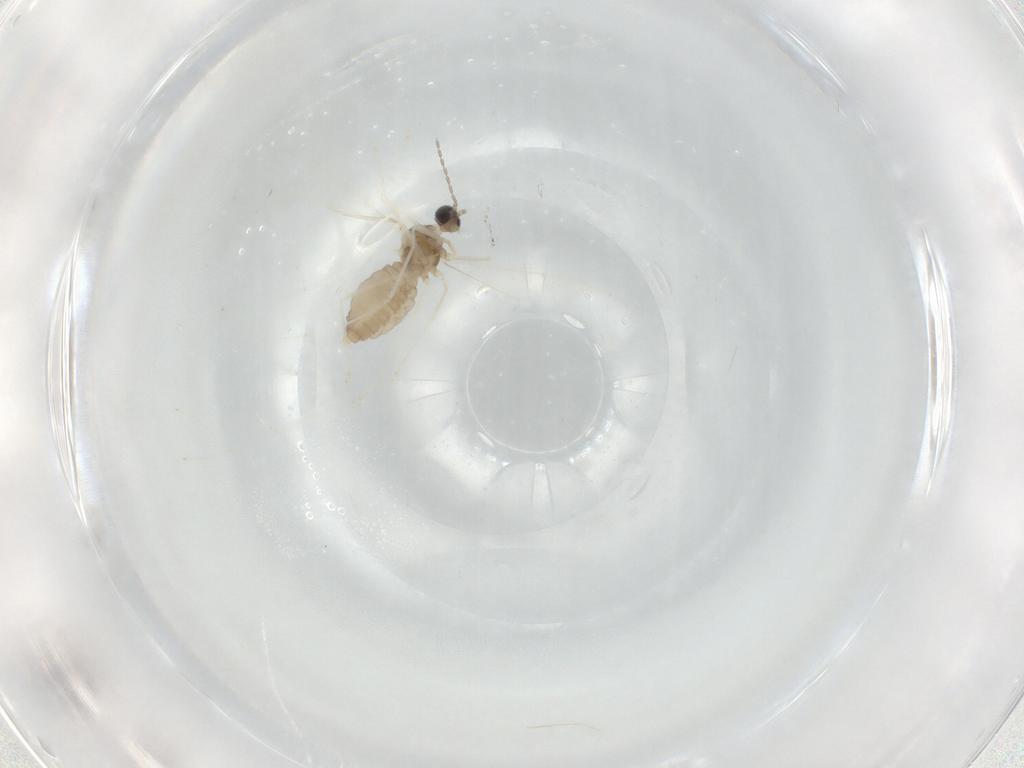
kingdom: Animalia
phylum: Arthropoda
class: Insecta
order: Diptera
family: Cecidomyiidae
